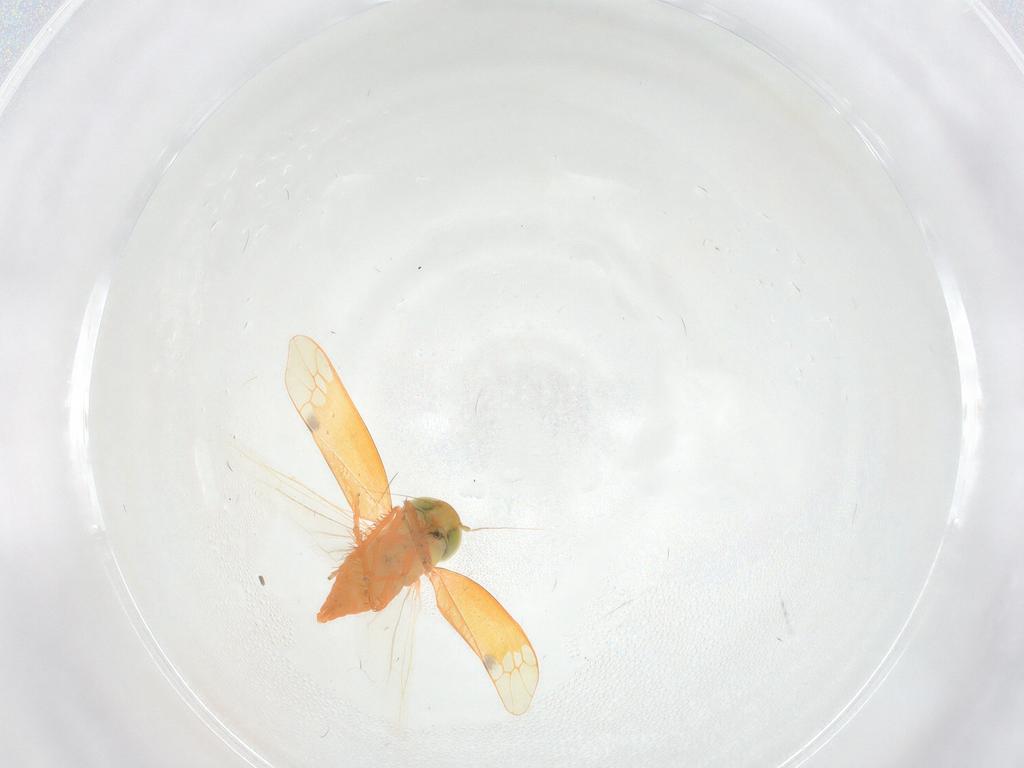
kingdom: Animalia
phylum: Arthropoda
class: Insecta
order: Hemiptera
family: Cicadellidae
